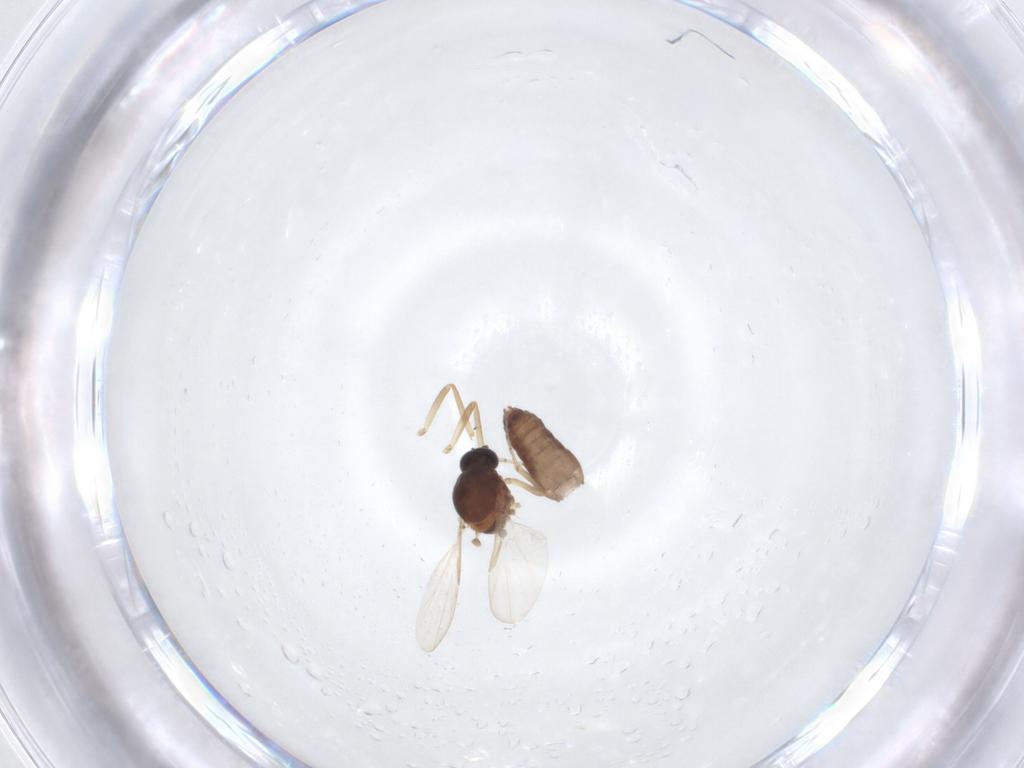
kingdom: Animalia
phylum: Arthropoda
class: Insecta
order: Diptera
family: Ceratopogonidae
